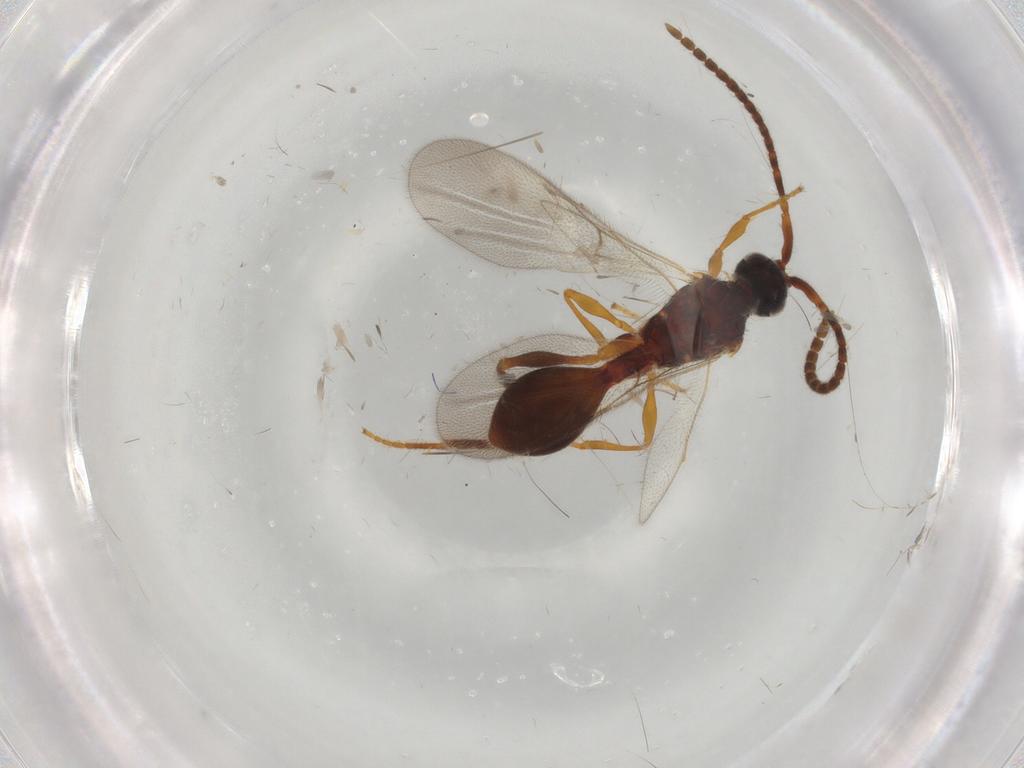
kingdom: Animalia
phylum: Arthropoda
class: Insecta
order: Hymenoptera
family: Formicidae
